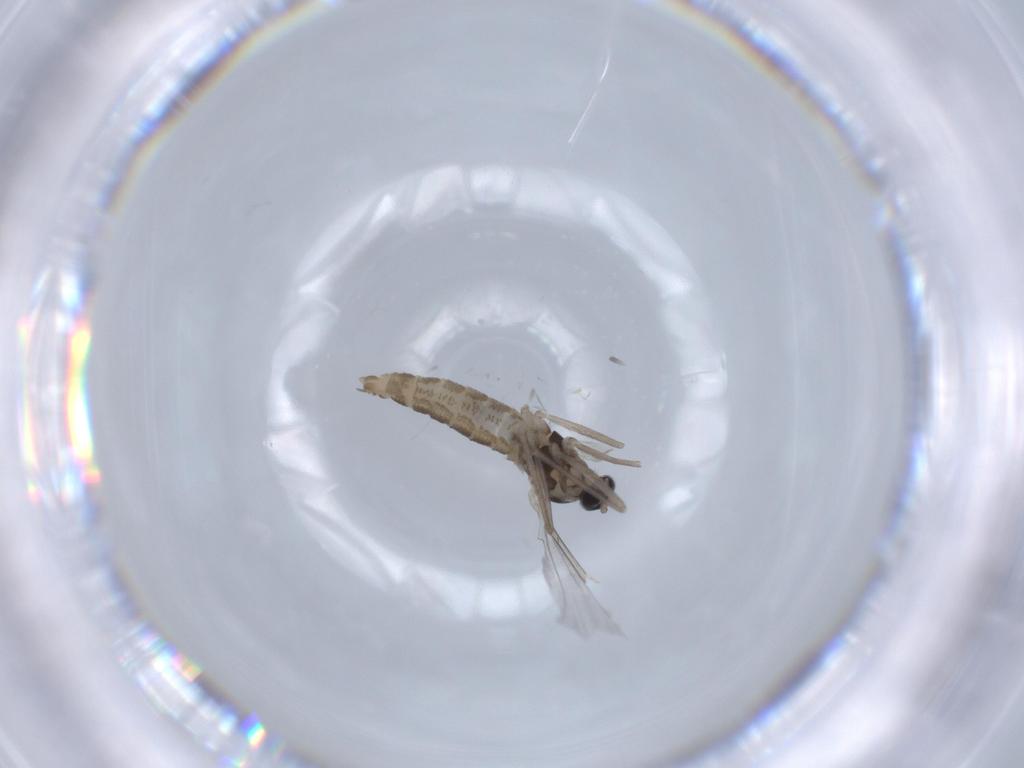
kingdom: Animalia
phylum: Arthropoda
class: Insecta
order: Diptera
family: Cecidomyiidae
